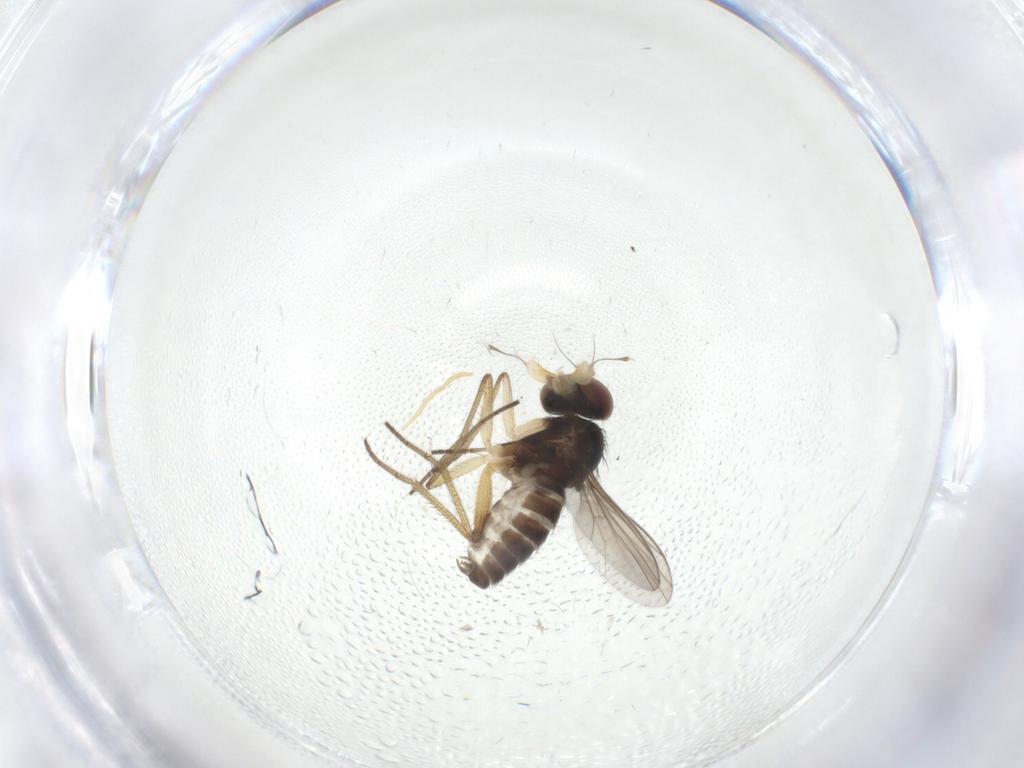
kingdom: Animalia
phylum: Arthropoda
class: Insecta
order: Diptera
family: Dolichopodidae
